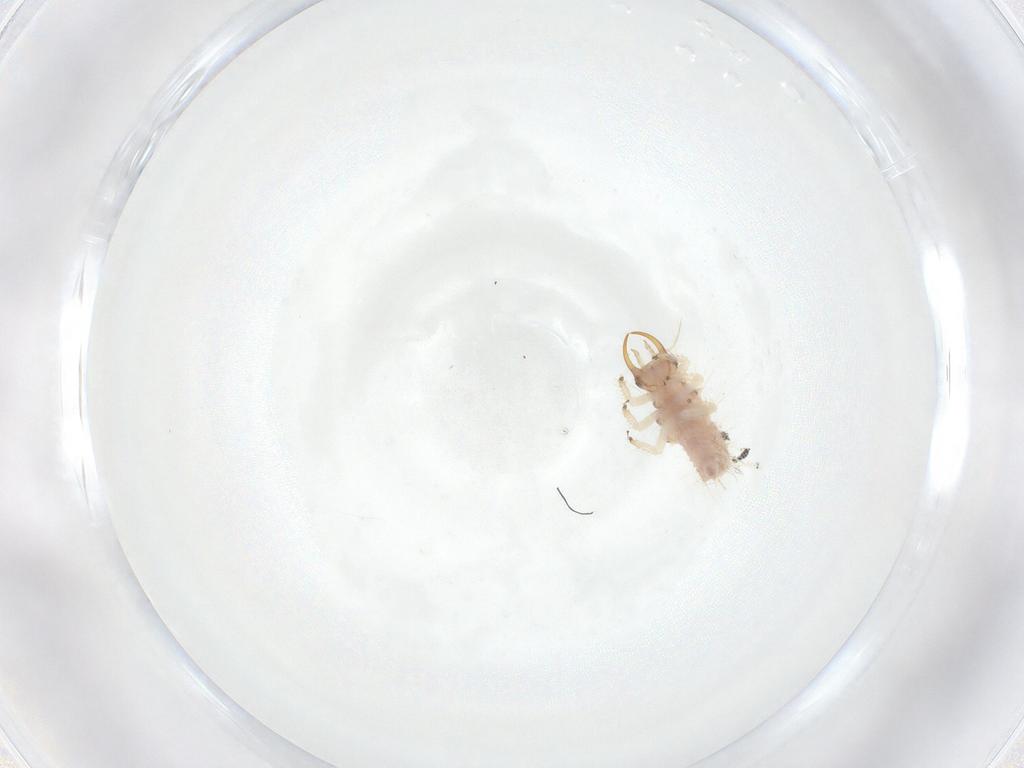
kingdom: Animalia
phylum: Arthropoda
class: Insecta
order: Neuroptera
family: Chrysopidae
